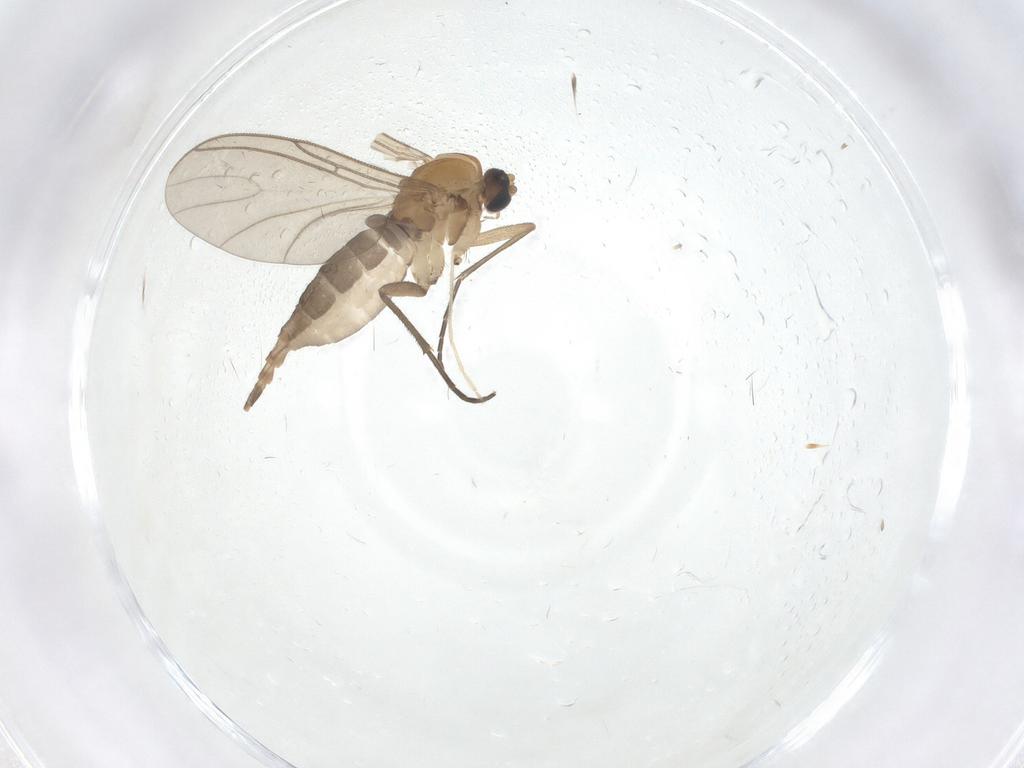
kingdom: Animalia
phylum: Arthropoda
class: Insecta
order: Diptera
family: Sciaridae
